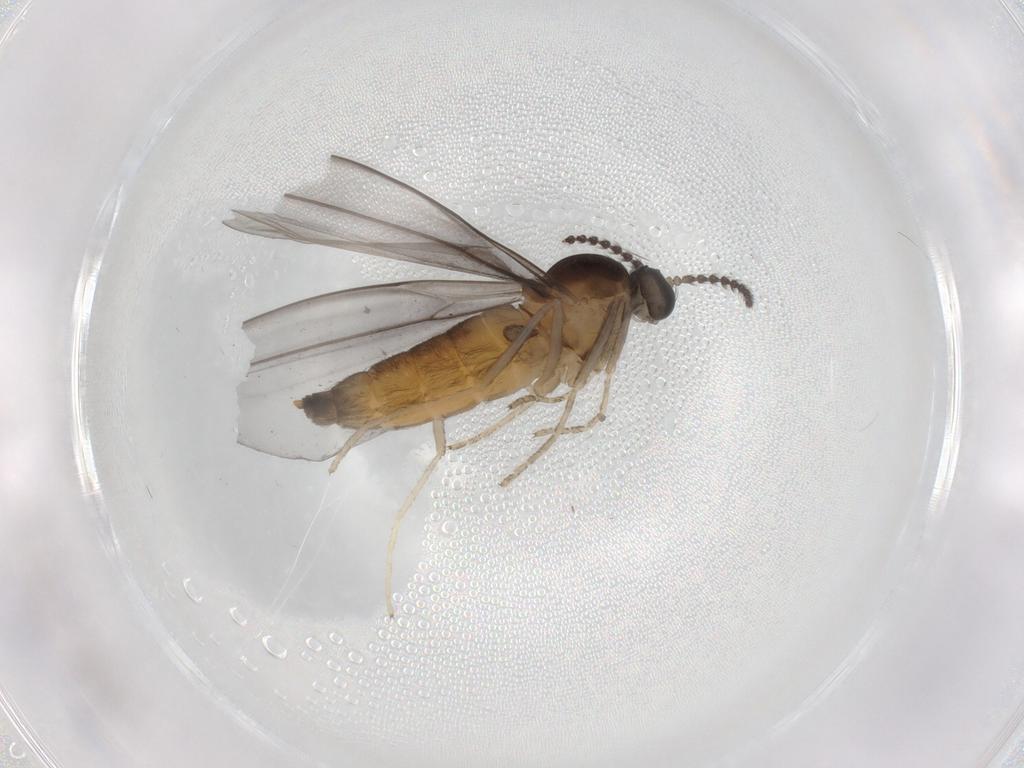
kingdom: Animalia
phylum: Arthropoda
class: Insecta
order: Diptera
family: Cecidomyiidae
